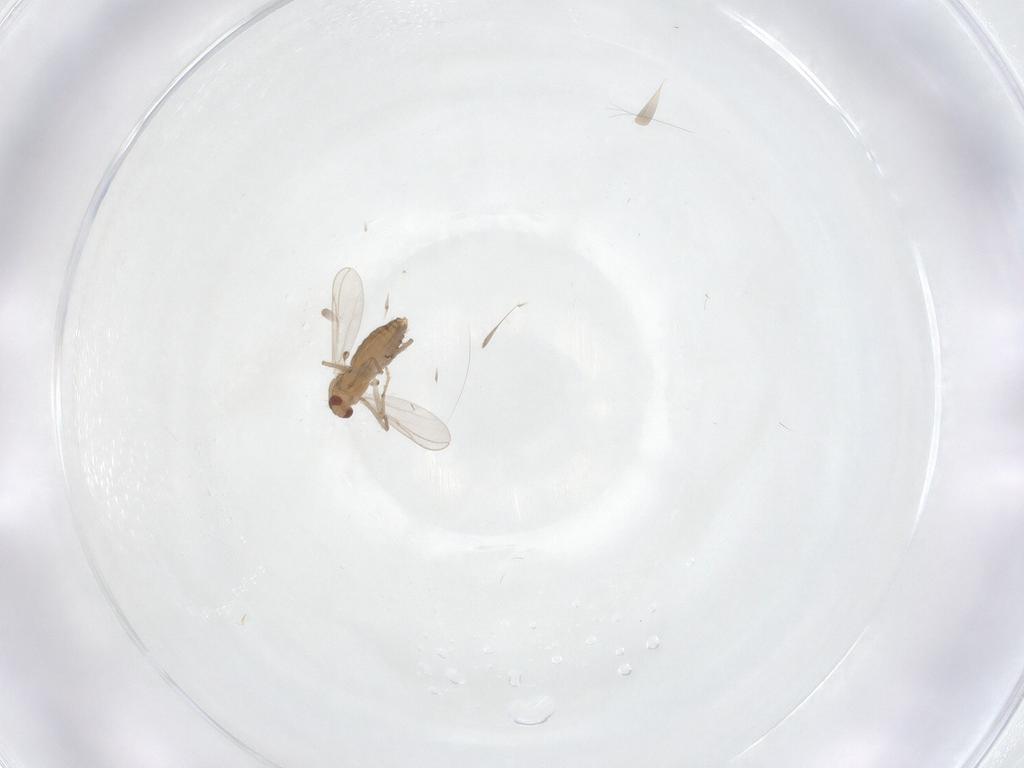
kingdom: Animalia
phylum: Arthropoda
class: Insecta
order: Diptera
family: Chironomidae
